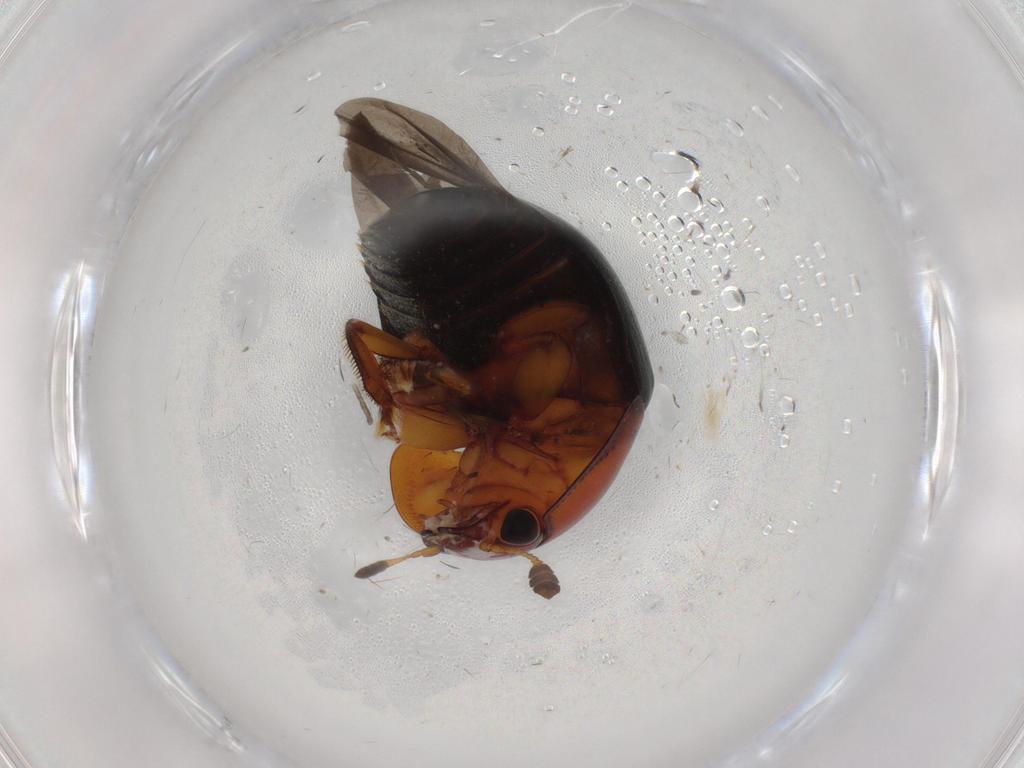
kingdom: Animalia
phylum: Arthropoda
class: Insecta
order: Coleoptera
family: Nitidulidae
